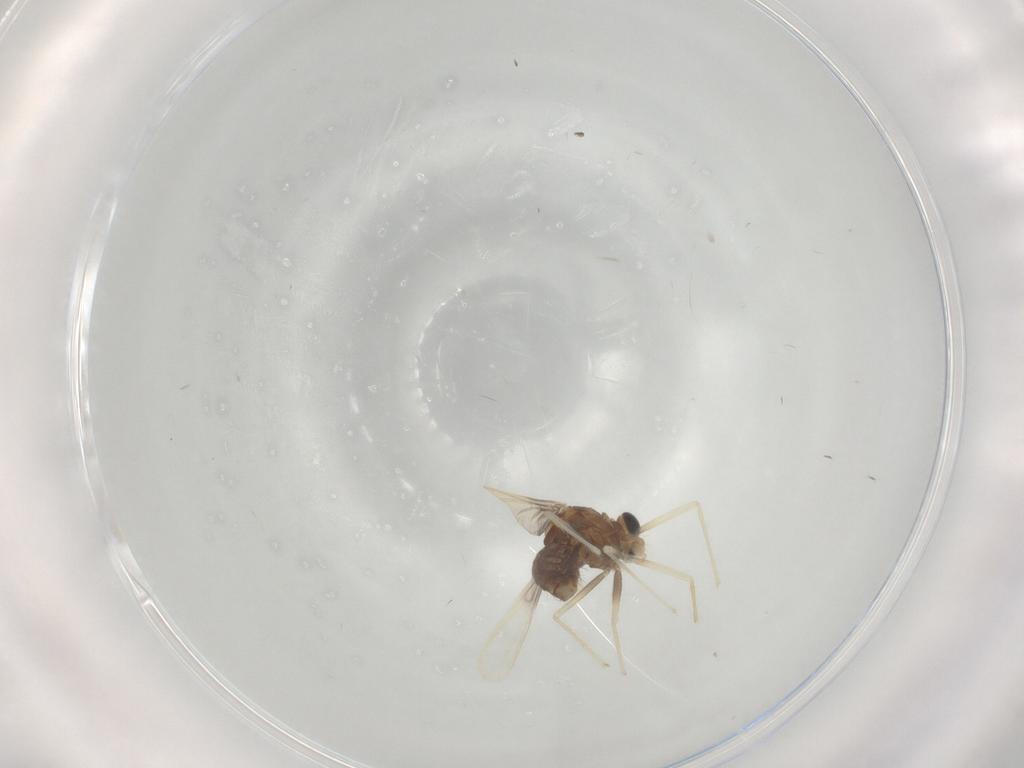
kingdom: Animalia
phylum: Arthropoda
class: Insecta
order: Diptera
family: Chironomidae
